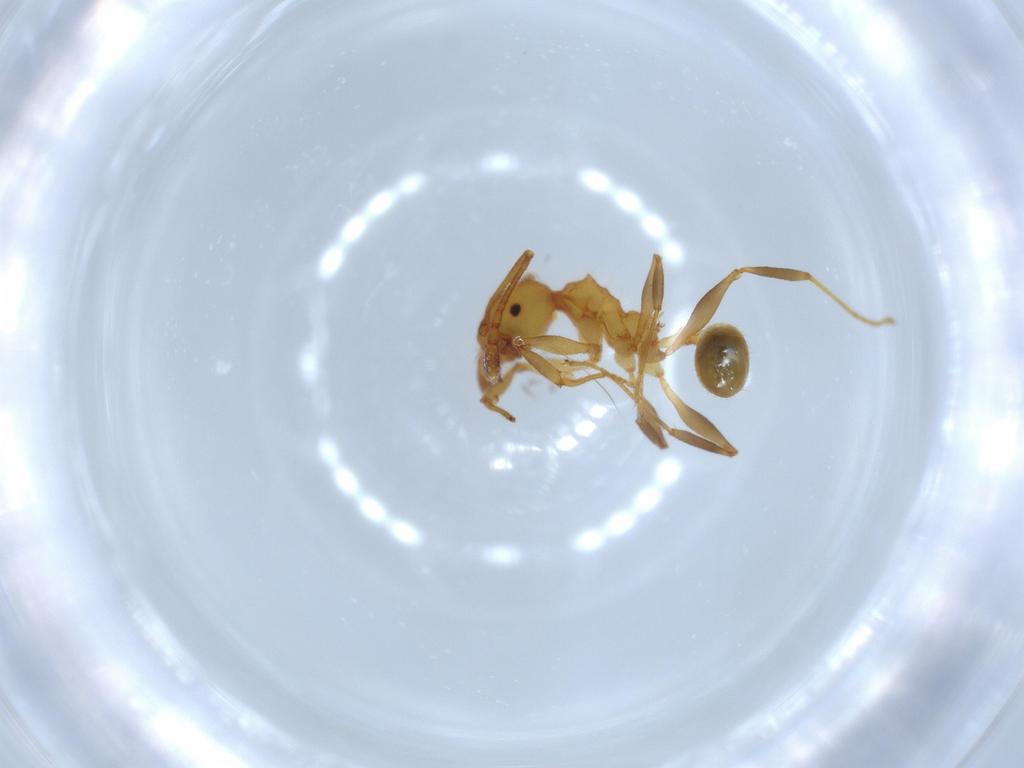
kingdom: Animalia
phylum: Arthropoda
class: Insecta
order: Hymenoptera
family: Formicidae
